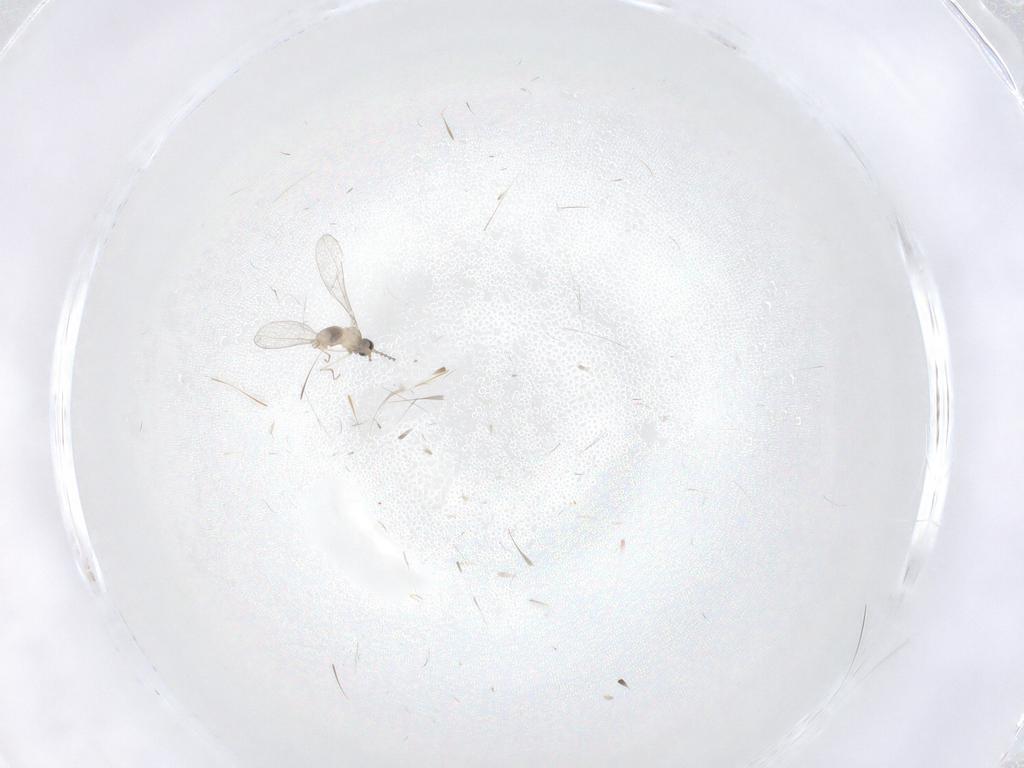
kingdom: Animalia
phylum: Arthropoda
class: Insecta
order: Diptera
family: Cecidomyiidae
